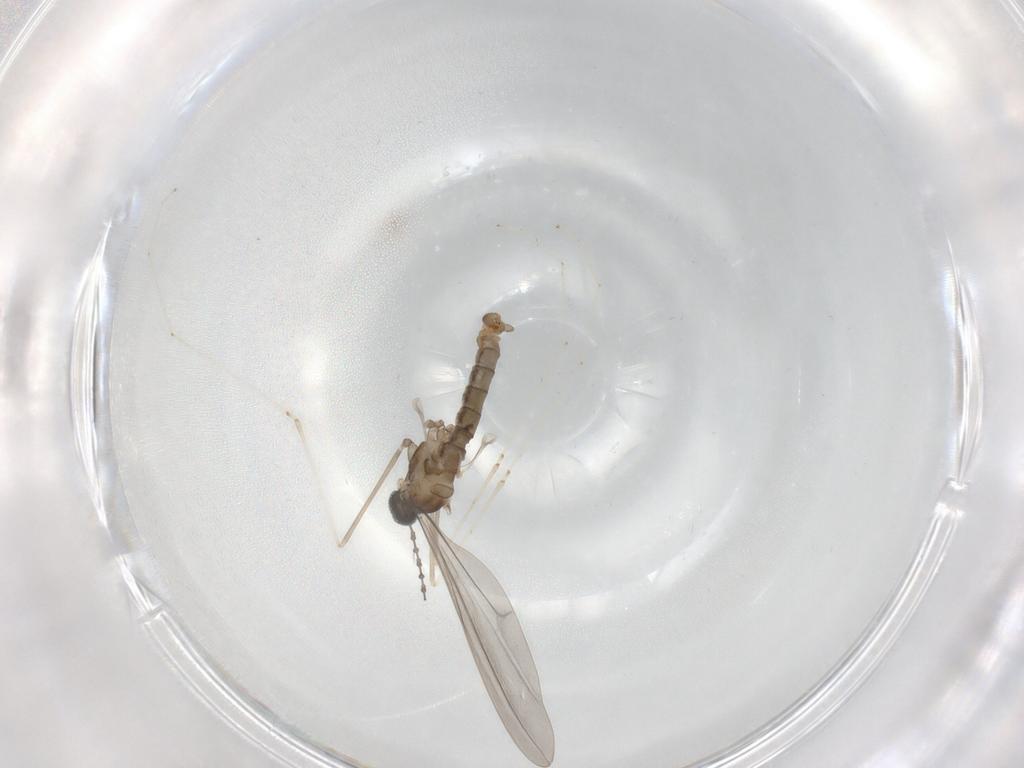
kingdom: Animalia
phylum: Arthropoda
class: Insecta
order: Diptera
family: Cecidomyiidae
